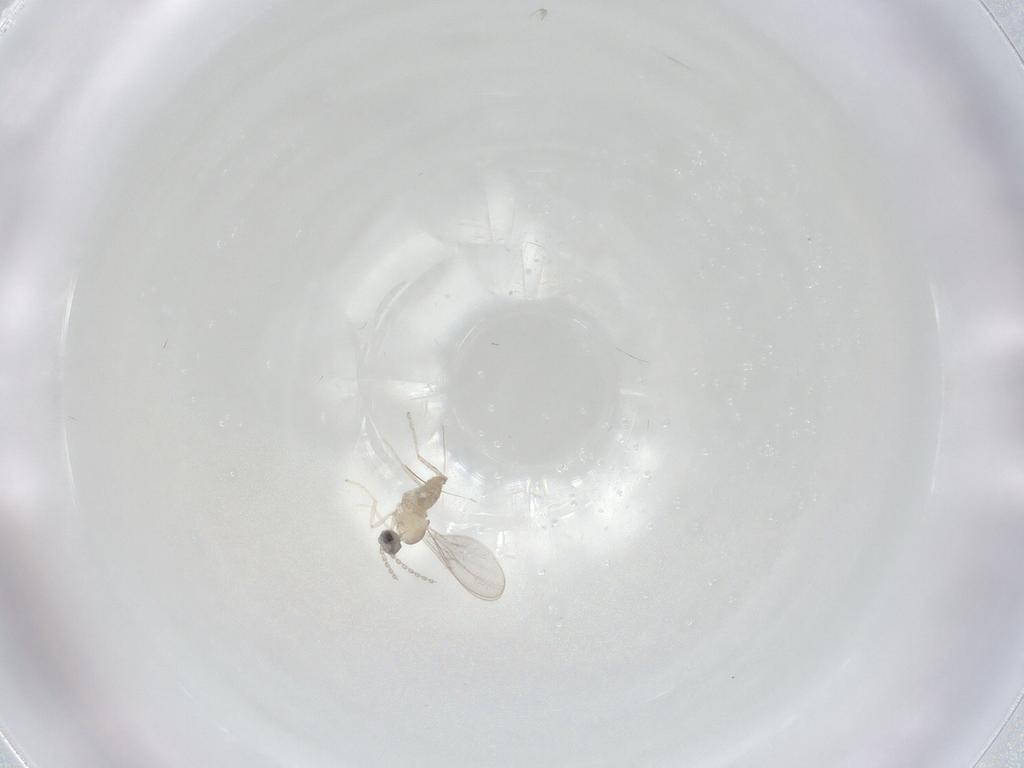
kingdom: Animalia
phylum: Arthropoda
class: Insecta
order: Diptera
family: Cecidomyiidae
